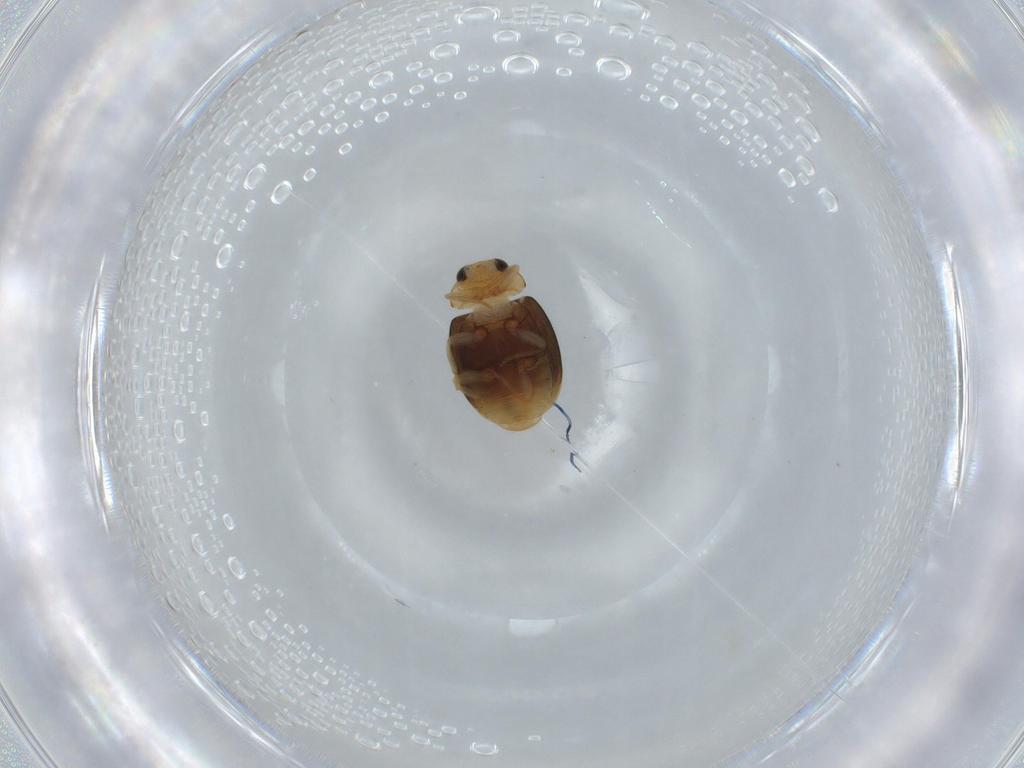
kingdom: Animalia
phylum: Arthropoda
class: Insecta
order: Coleoptera
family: Coccinellidae
